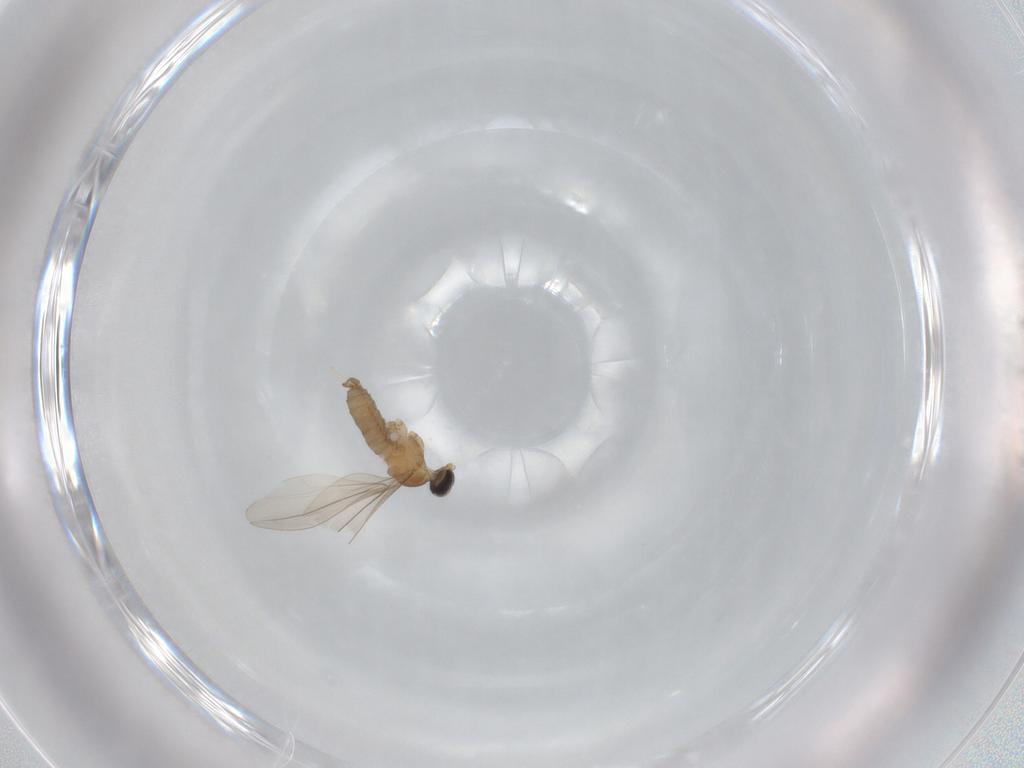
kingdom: Animalia
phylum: Arthropoda
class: Insecta
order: Diptera
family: Cecidomyiidae
